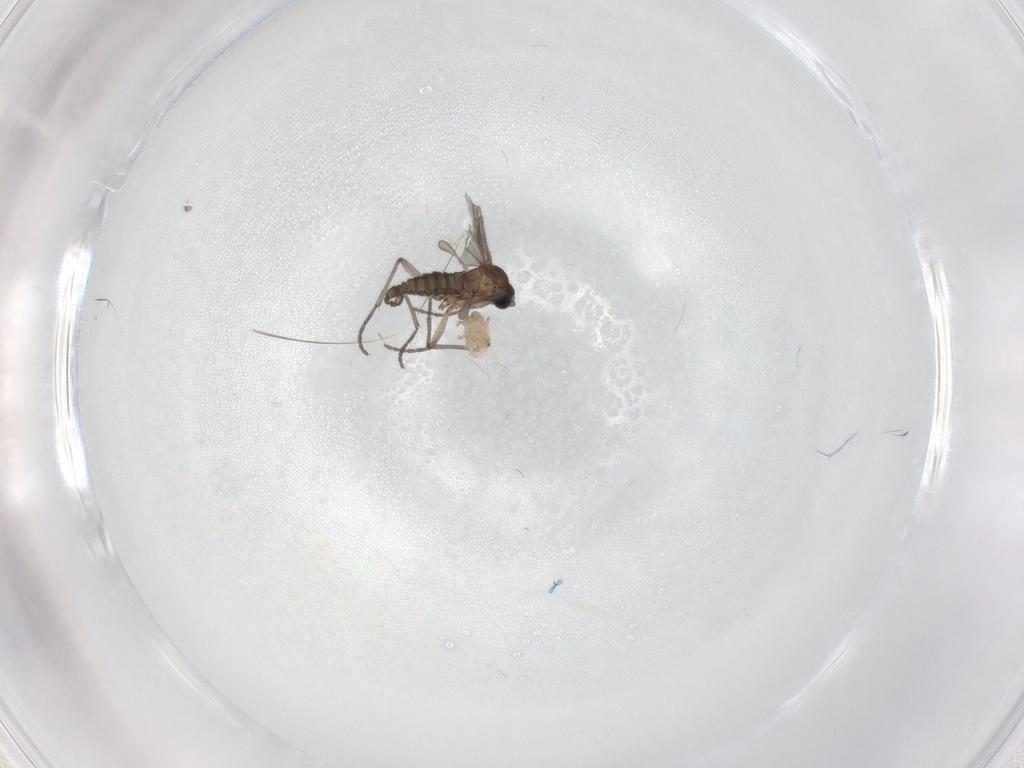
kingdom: Animalia
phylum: Arthropoda
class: Insecta
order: Diptera
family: Sciaridae
